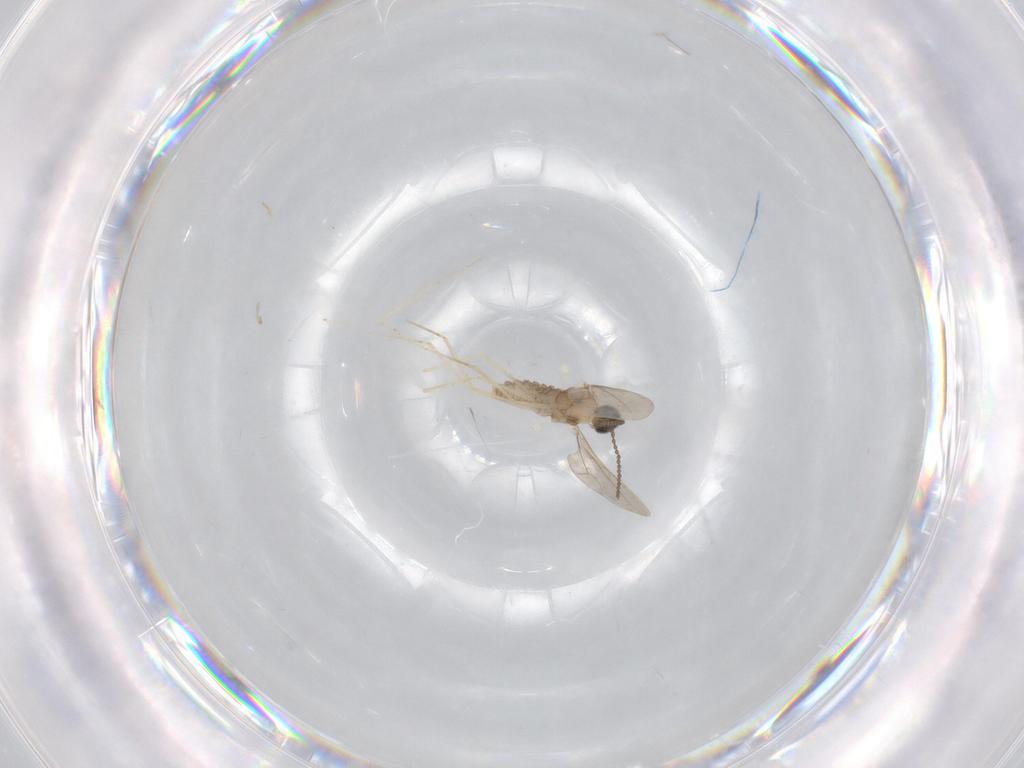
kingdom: Animalia
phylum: Arthropoda
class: Insecta
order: Diptera
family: Cecidomyiidae
